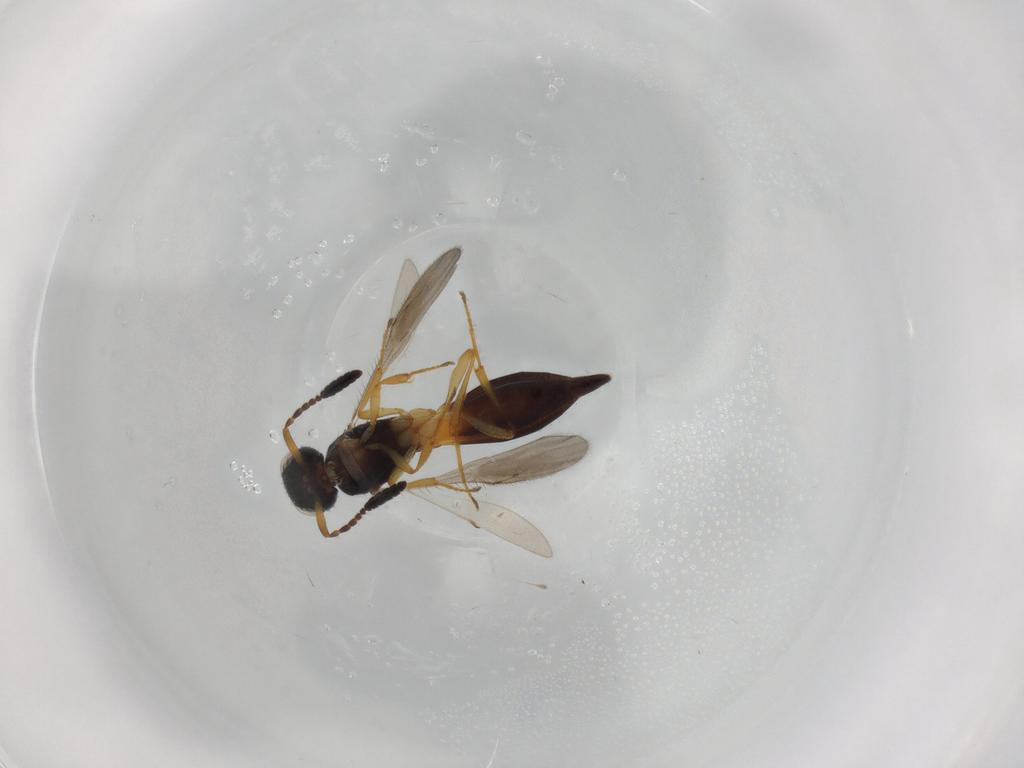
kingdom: Animalia
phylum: Arthropoda
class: Insecta
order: Hymenoptera
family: Scelionidae
